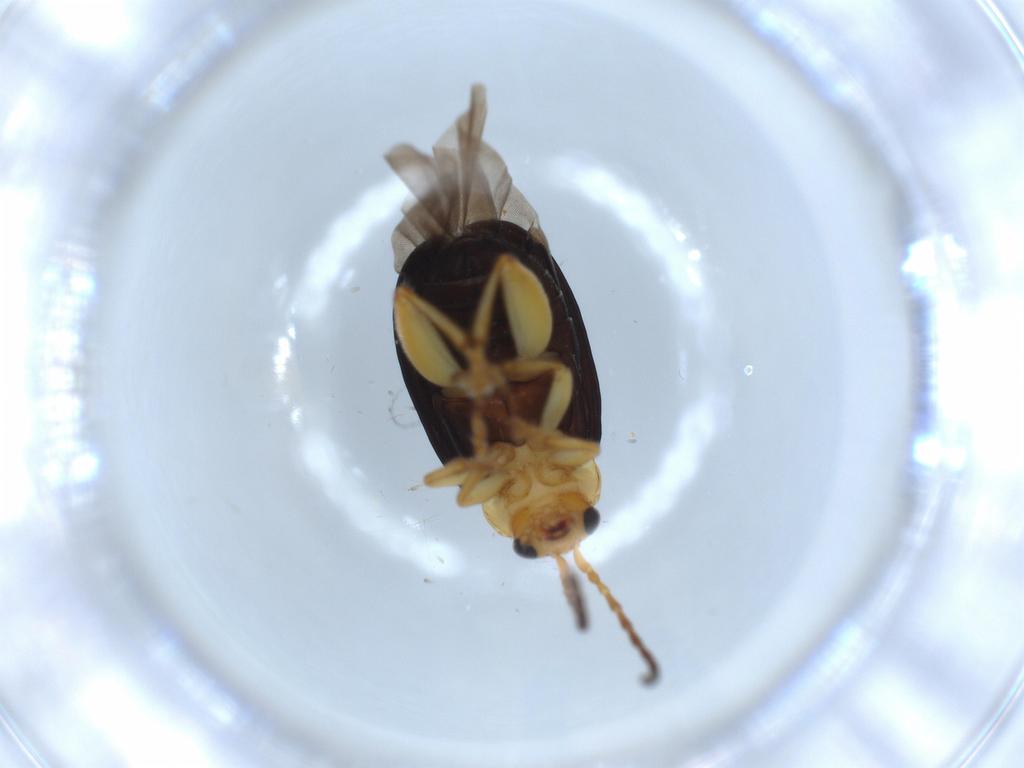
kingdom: Animalia
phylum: Arthropoda
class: Insecta
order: Coleoptera
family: Chrysomelidae
